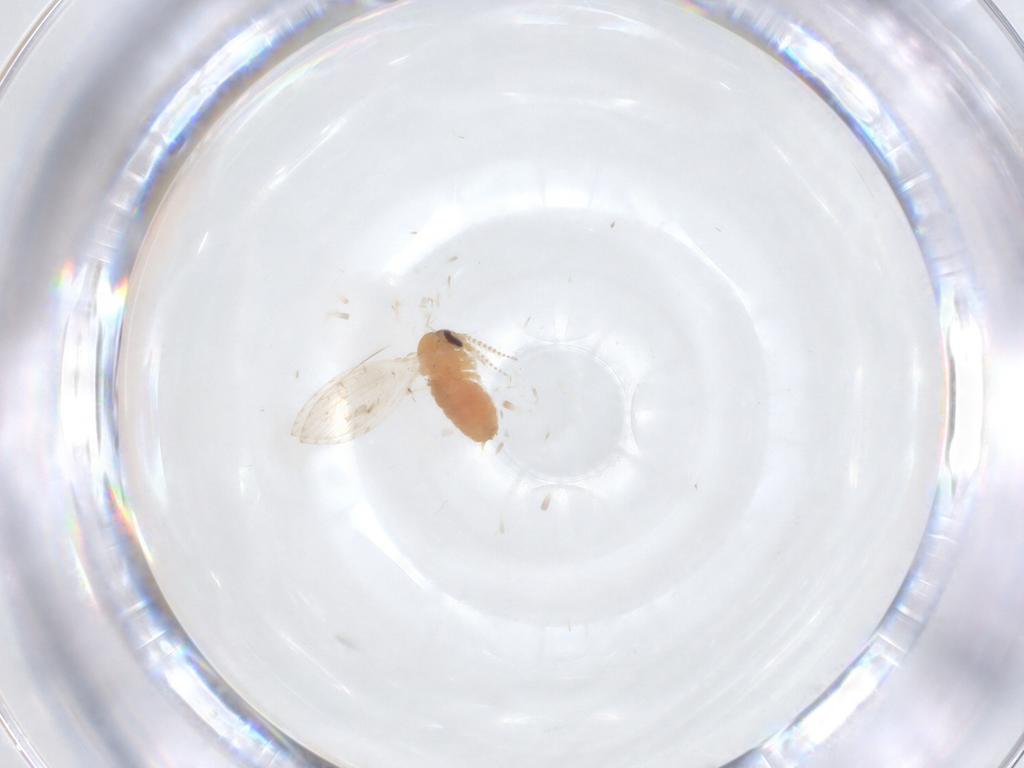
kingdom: Animalia
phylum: Arthropoda
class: Insecta
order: Diptera
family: Psychodidae
